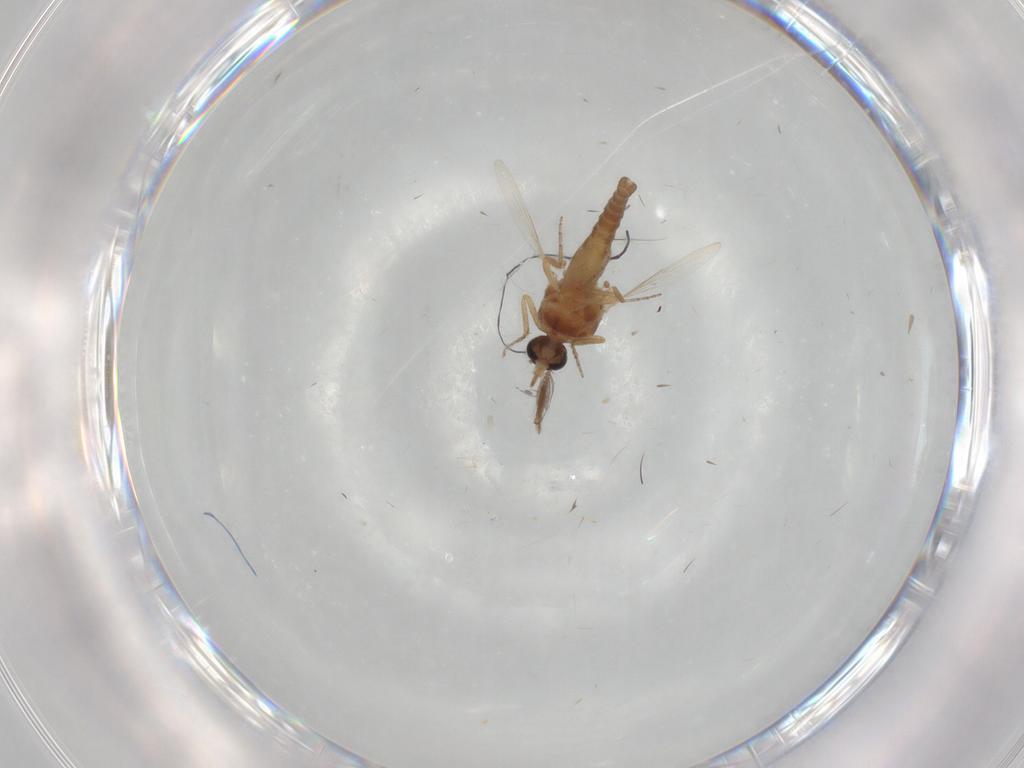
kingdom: Animalia
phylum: Arthropoda
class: Insecta
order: Diptera
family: Ceratopogonidae
